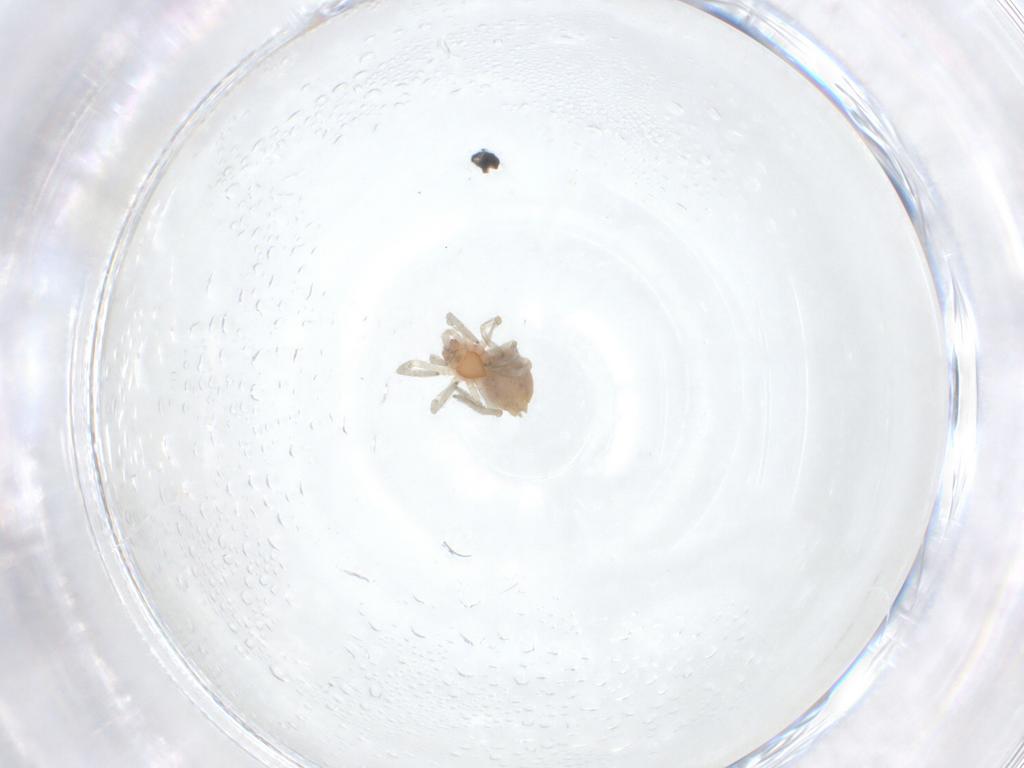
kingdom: Animalia
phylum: Arthropoda
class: Arachnida
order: Araneae
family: Dictynidae
